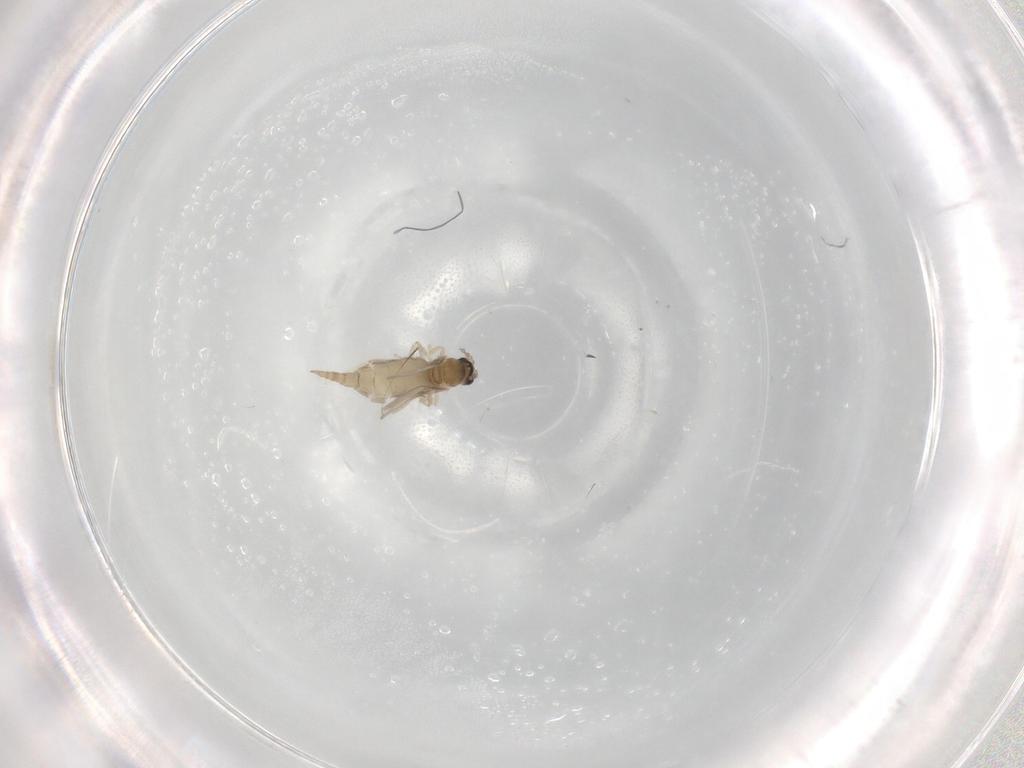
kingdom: Animalia
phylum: Arthropoda
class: Insecta
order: Diptera
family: Cecidomyiidae
